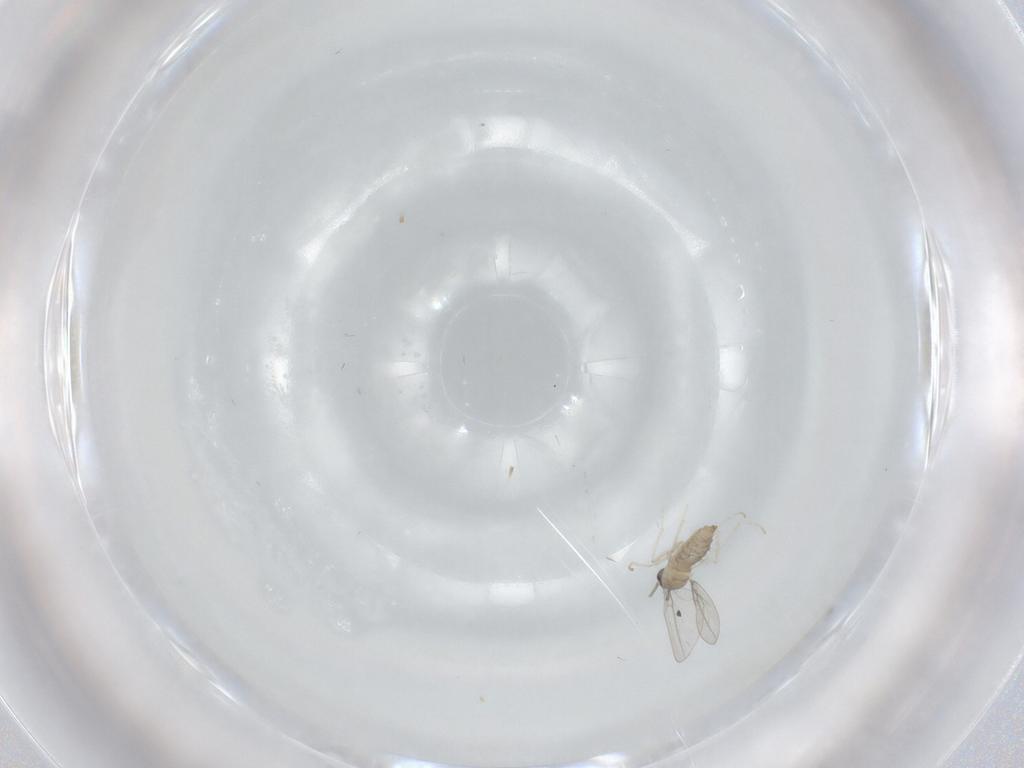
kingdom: Animalia
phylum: Arthropoda
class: Insecta
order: Diptera
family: Cecidomyiidae
